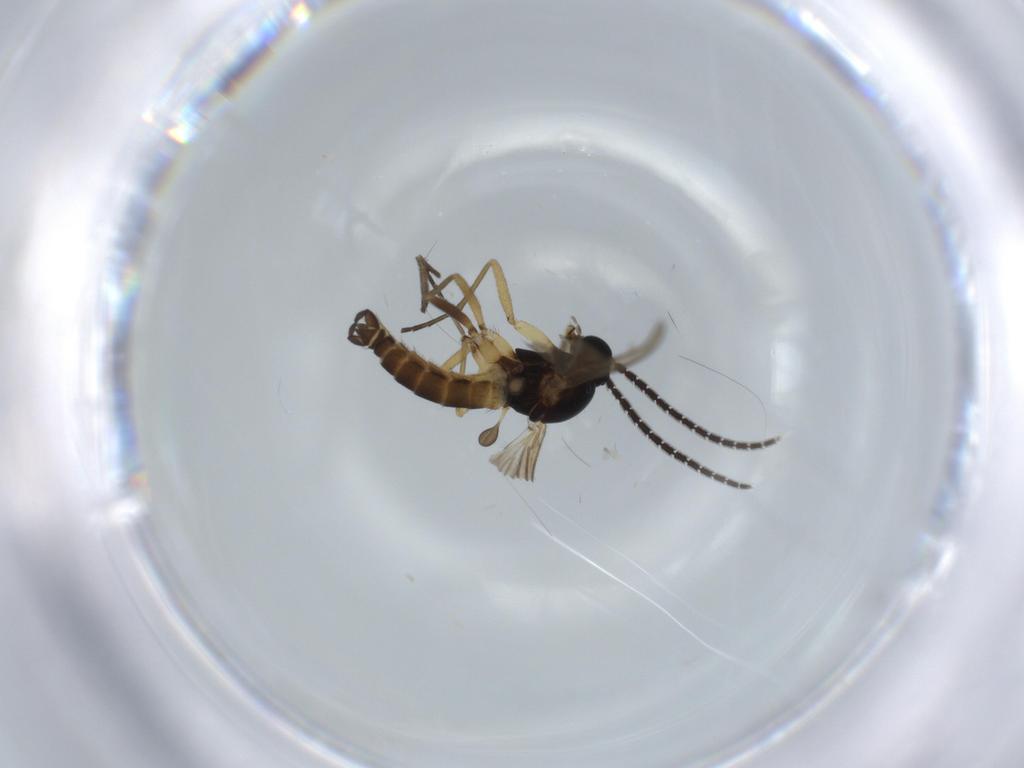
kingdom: Animalia
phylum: Arthropoda
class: Insecta
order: Diptera
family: Sciaridae
